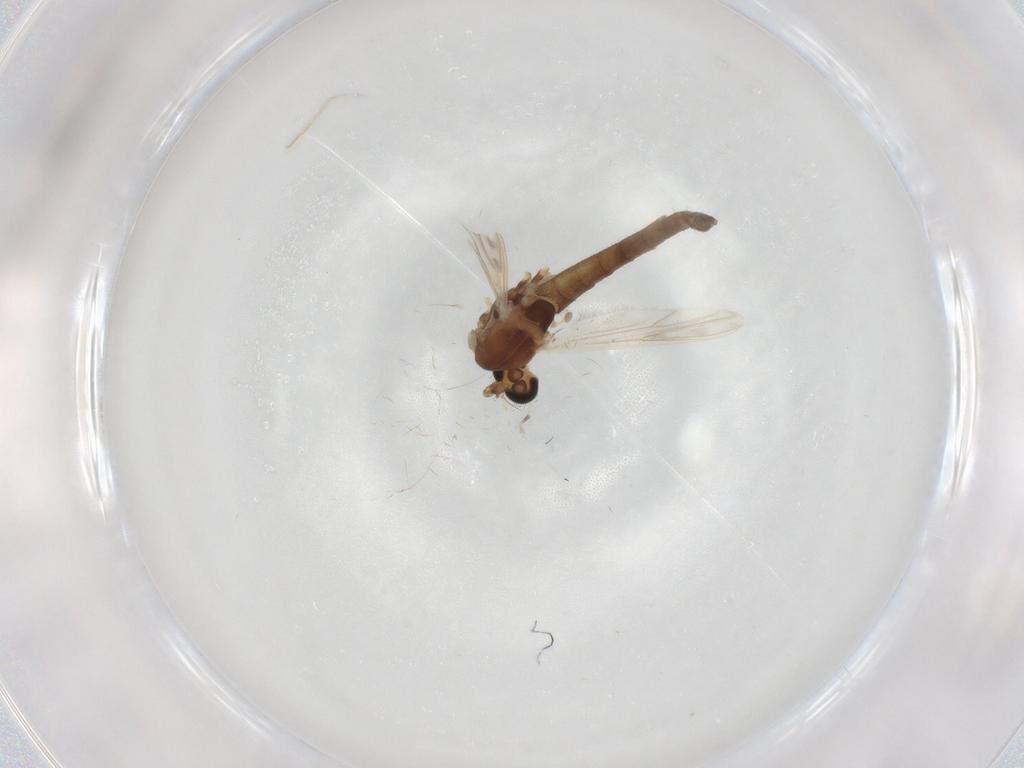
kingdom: Animalia
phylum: Arthropoda
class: Insecta
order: Diptera
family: Chironomidae
